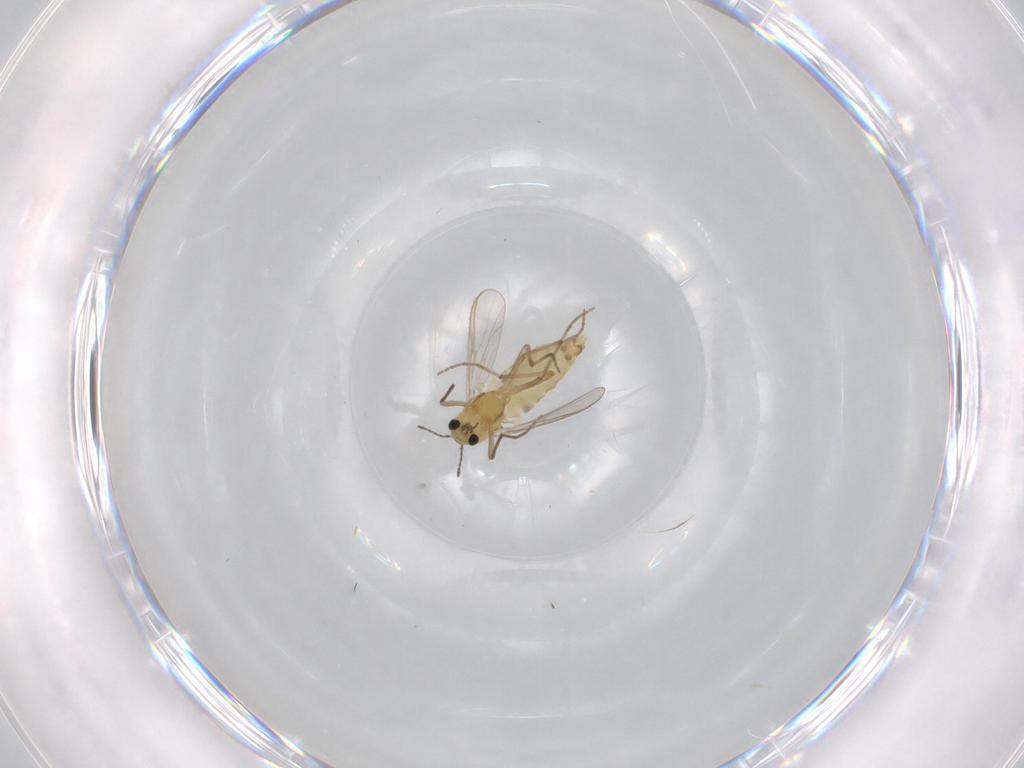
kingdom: Animalia
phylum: Arthropoda
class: Insecta
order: Diptera
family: Chironomidae
